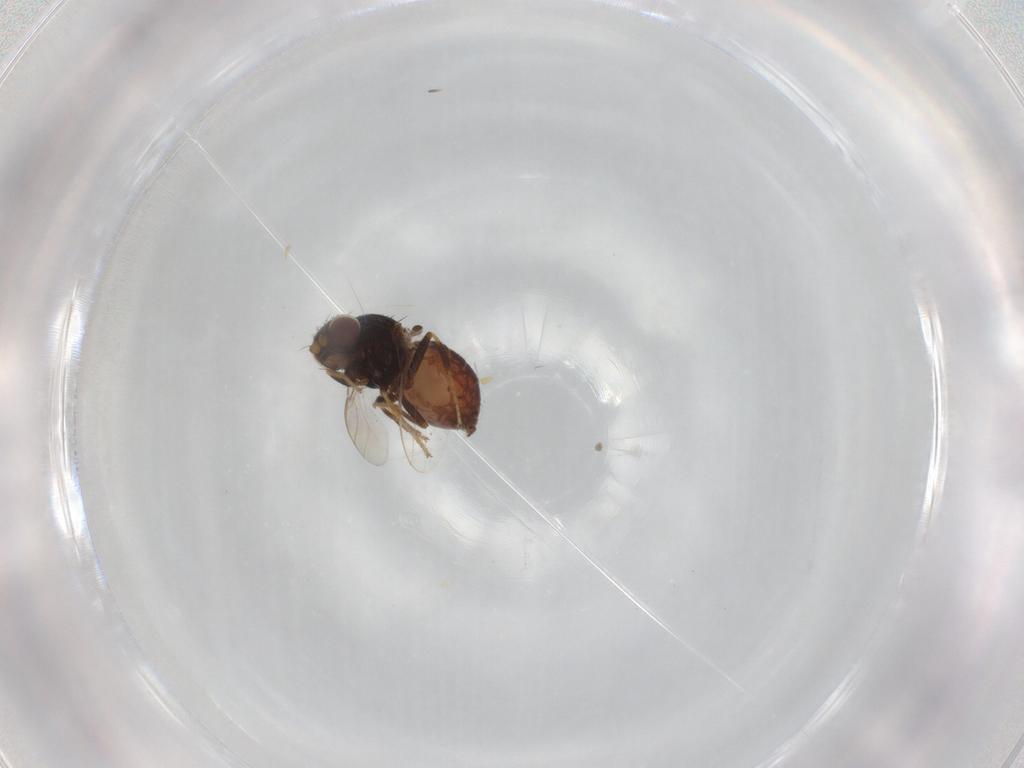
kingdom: Animalia
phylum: Arthropoda
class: Insecta
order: Diptera
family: Chloropidae
